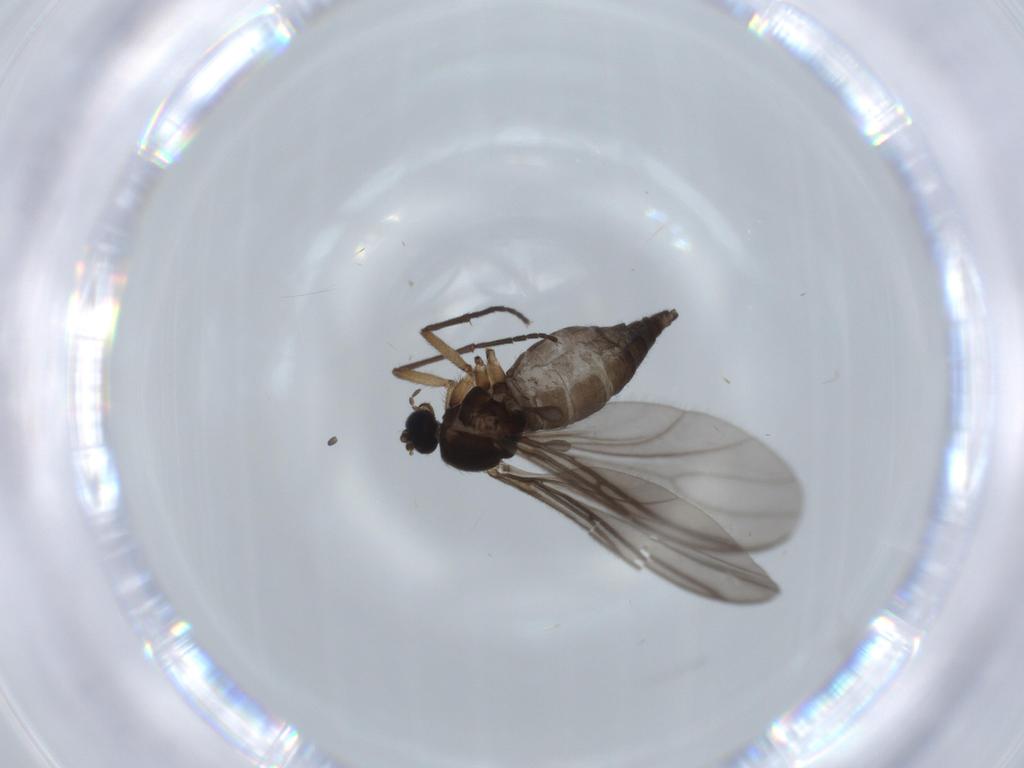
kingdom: Animalia
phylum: Arthropoda
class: Insecta
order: Diptera
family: Sciaridae
